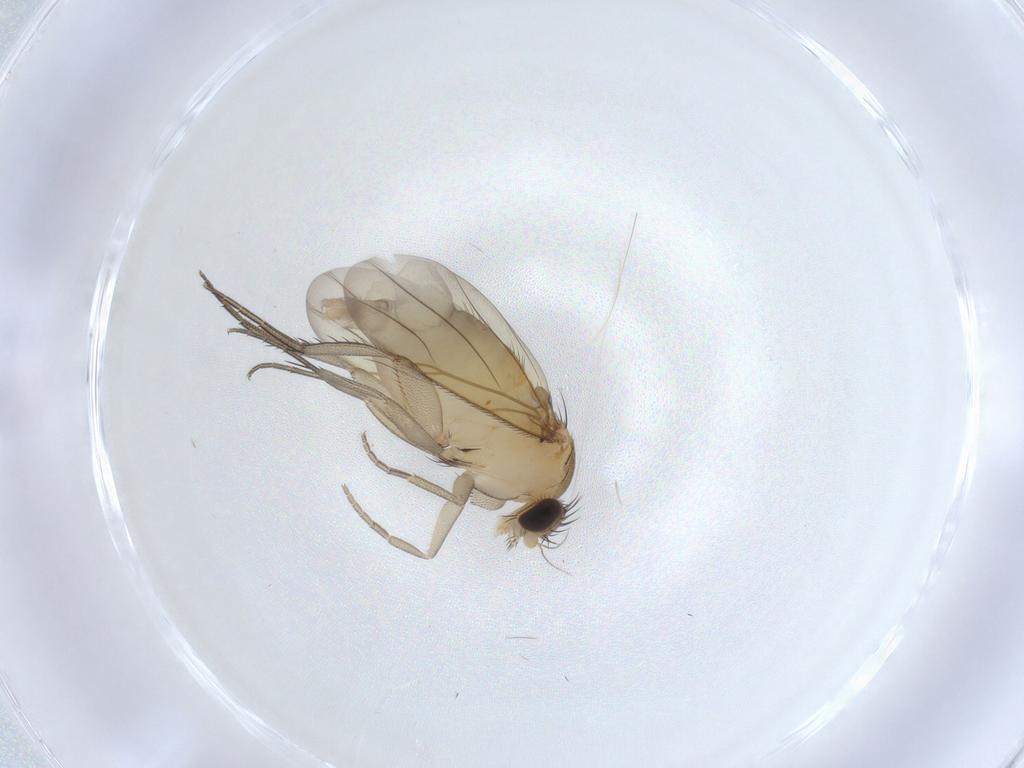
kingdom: Animalia
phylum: Arthropoda
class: Insecta
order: Diptera
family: Phoridae
